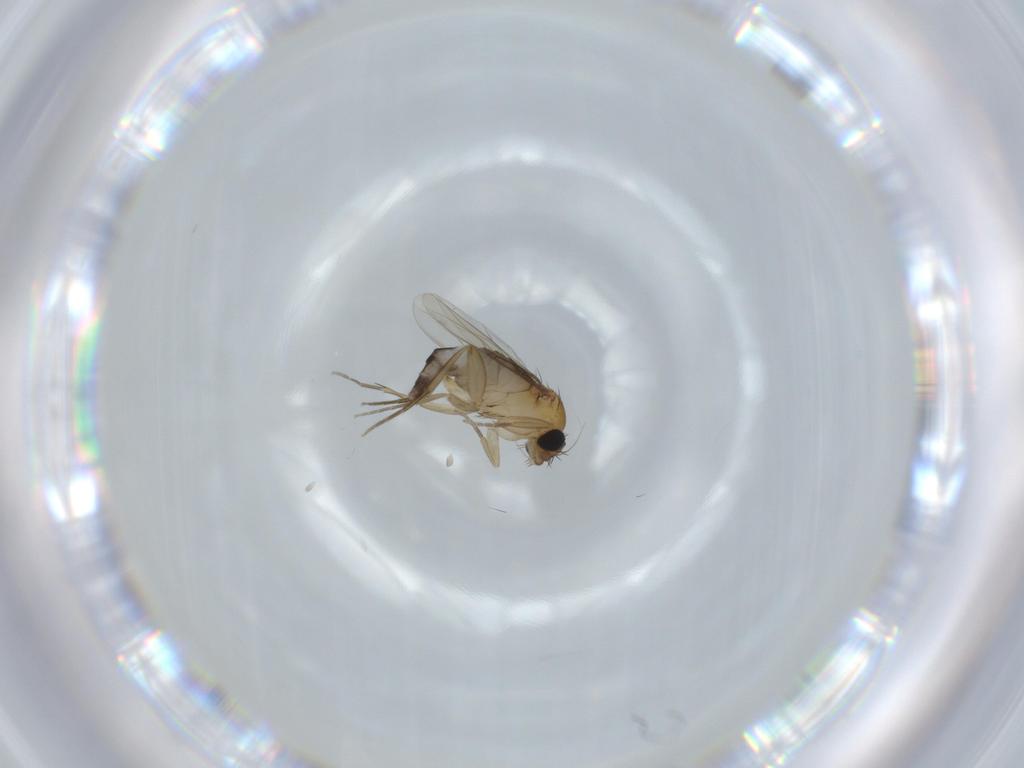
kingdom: Animalia
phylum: Arthropoda
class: Insecta
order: Diptera
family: Phoridae
